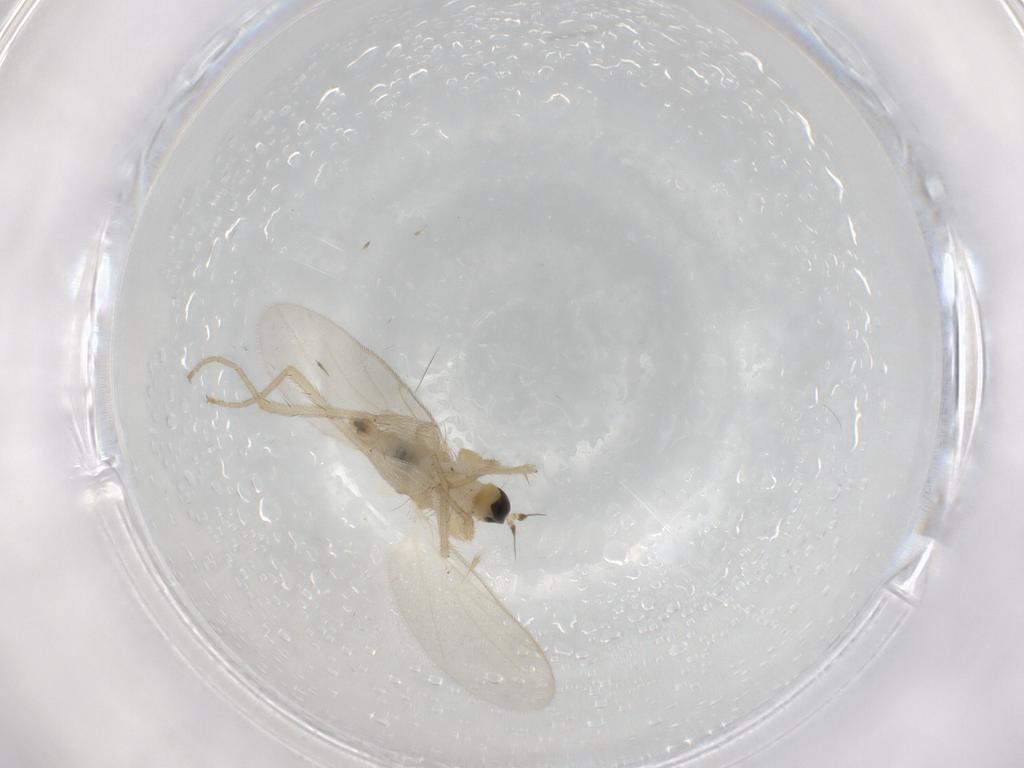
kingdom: Animalia
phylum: Arthropoda
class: Insecta
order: Diptera
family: Hybotidae
